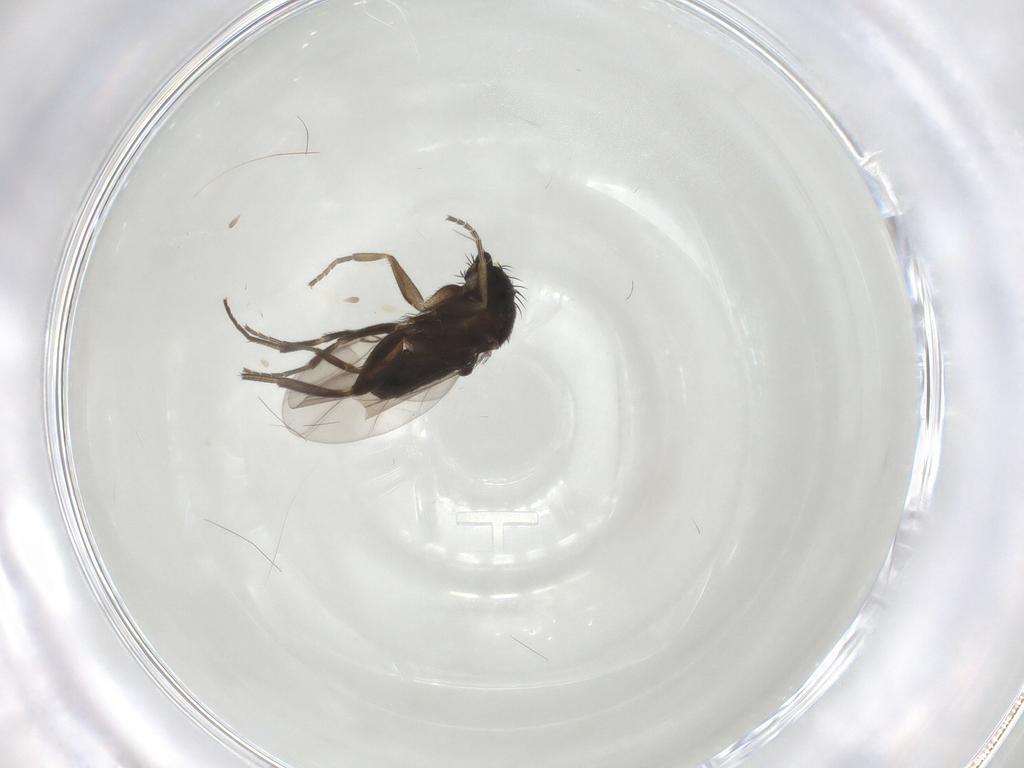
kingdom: Animalia
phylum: Arthropoda
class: Insecta
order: Diptera
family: Phoridae
